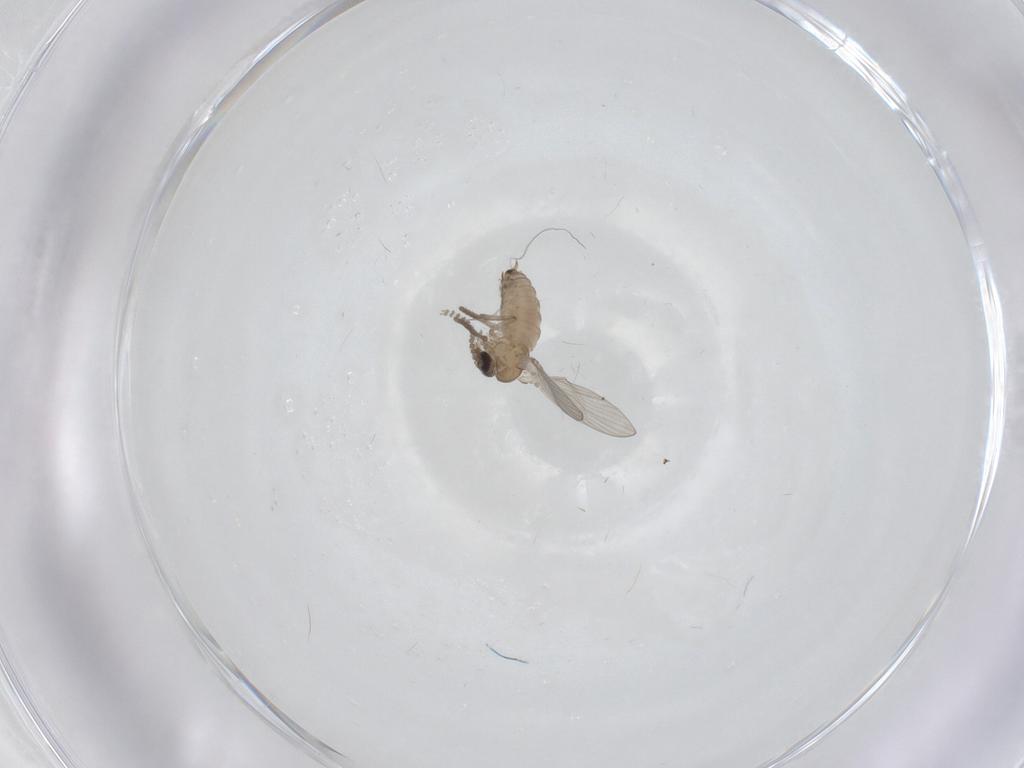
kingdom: Animalia
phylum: Arthropoda
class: Insecta
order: Diptera
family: Psychodidae
